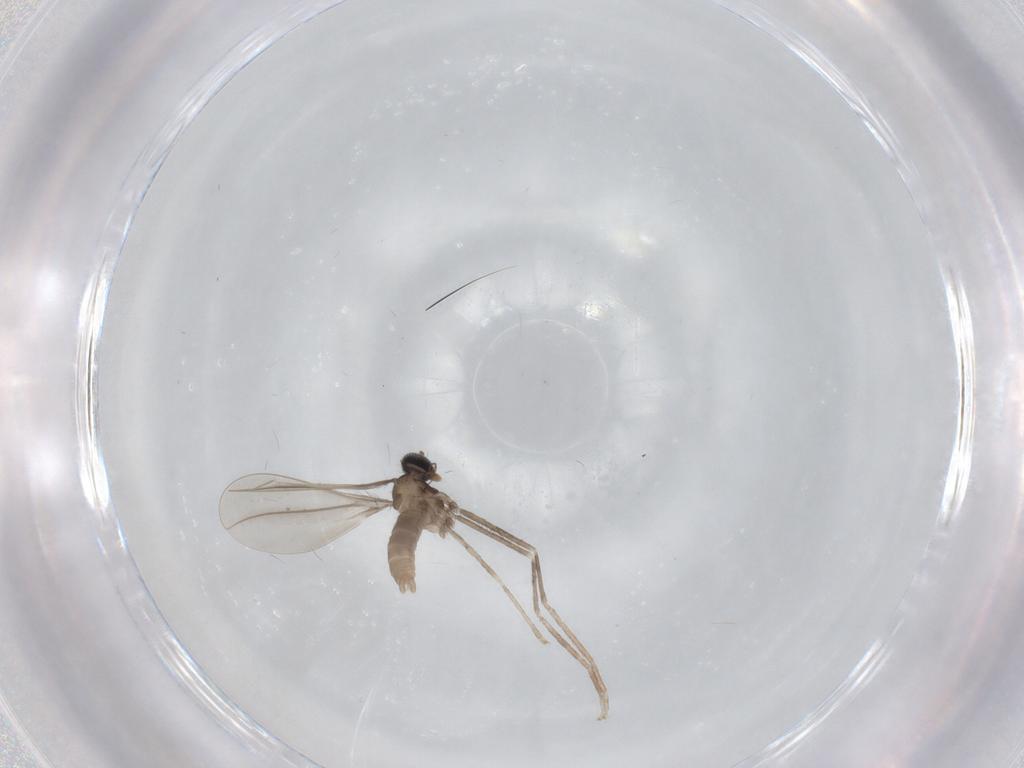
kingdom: Animalia
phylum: Arthropoda
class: Insecta
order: Diptera
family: Cecidomyiidae
